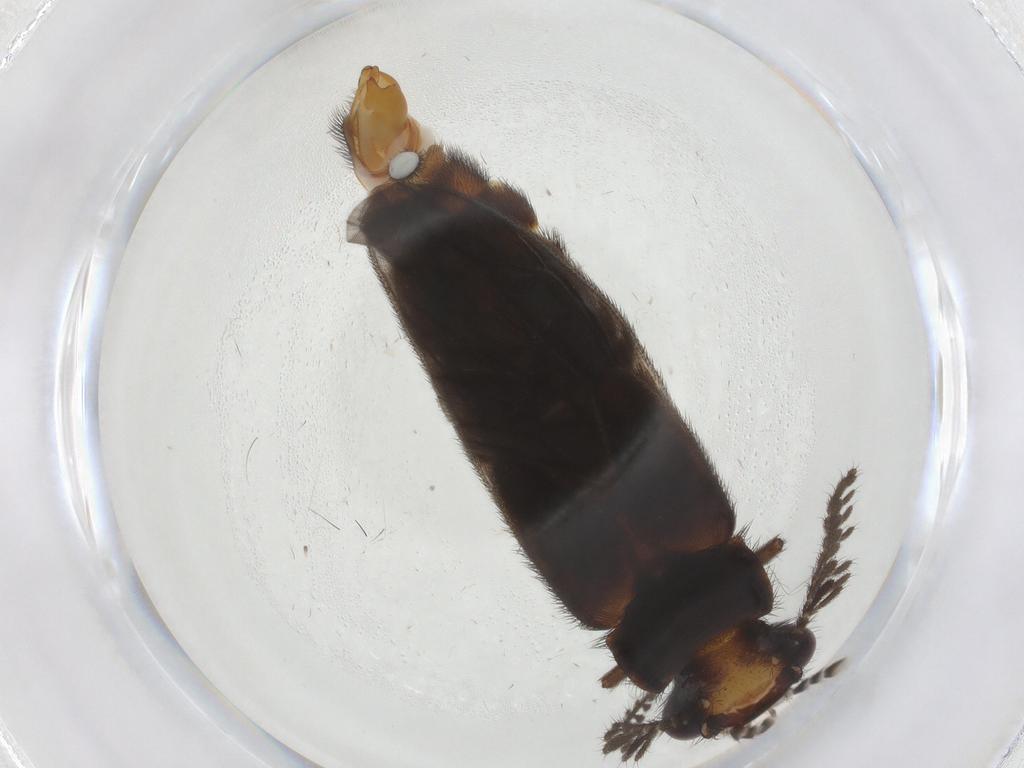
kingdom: Animalia
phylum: Arthropoda
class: Insecta
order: Coleoptera
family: Phengodidae
